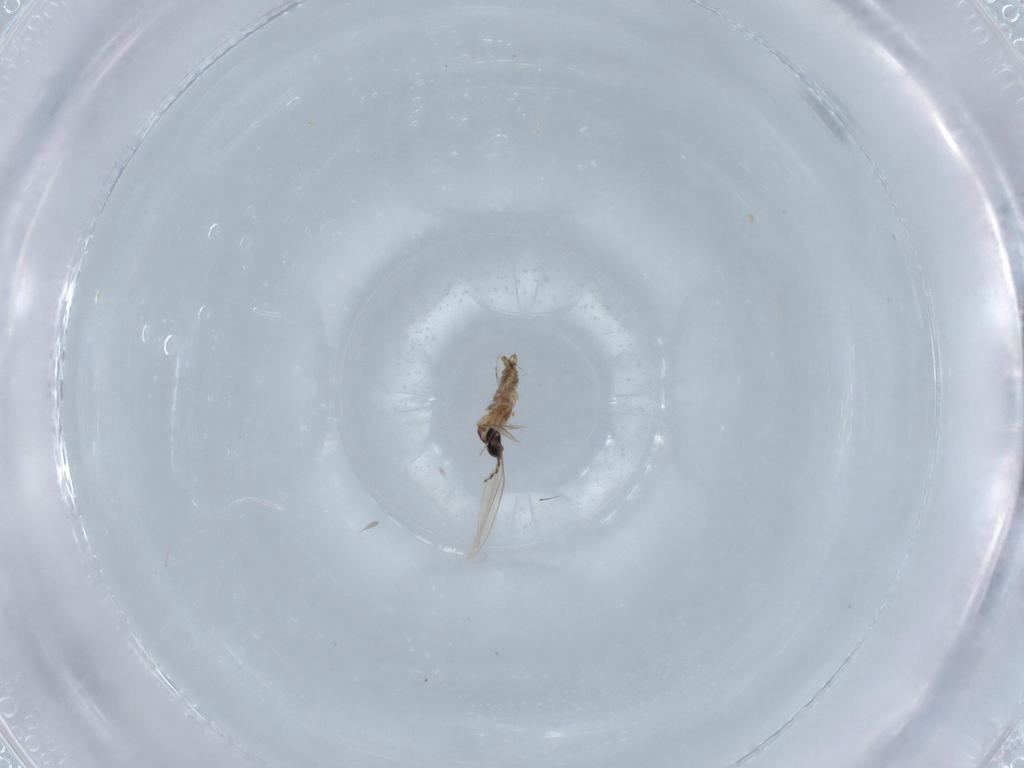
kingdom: Animalia
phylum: Arthropoda
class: Insecta
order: Diptera
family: Cecidomyiidae
